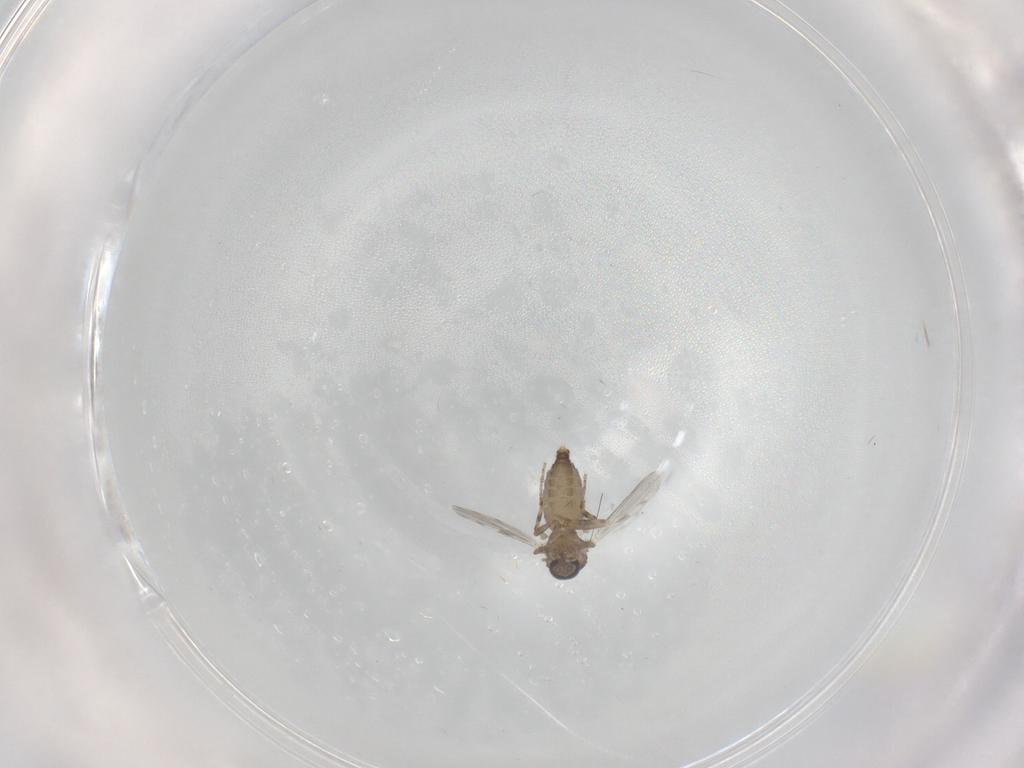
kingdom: Animalia
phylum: Arthropoda
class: Insecta
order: Diptera
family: Ceratopogonidae
